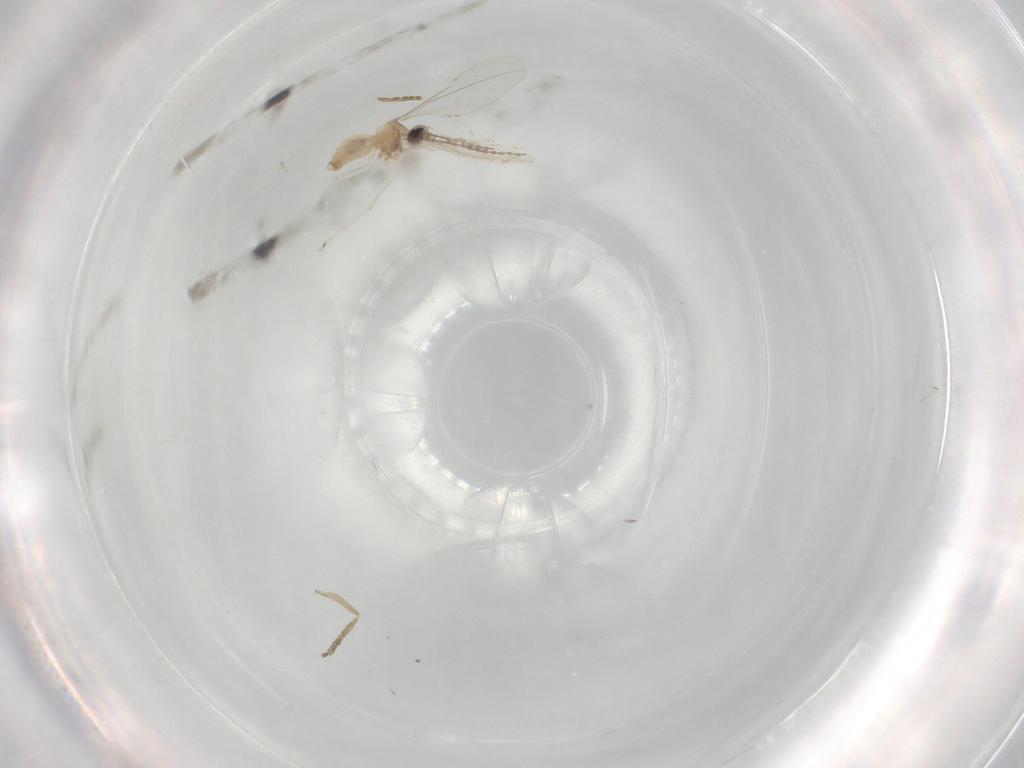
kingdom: Animalia
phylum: Arthropoda
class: Insecta
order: Diptera
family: Cecidomyiidae
